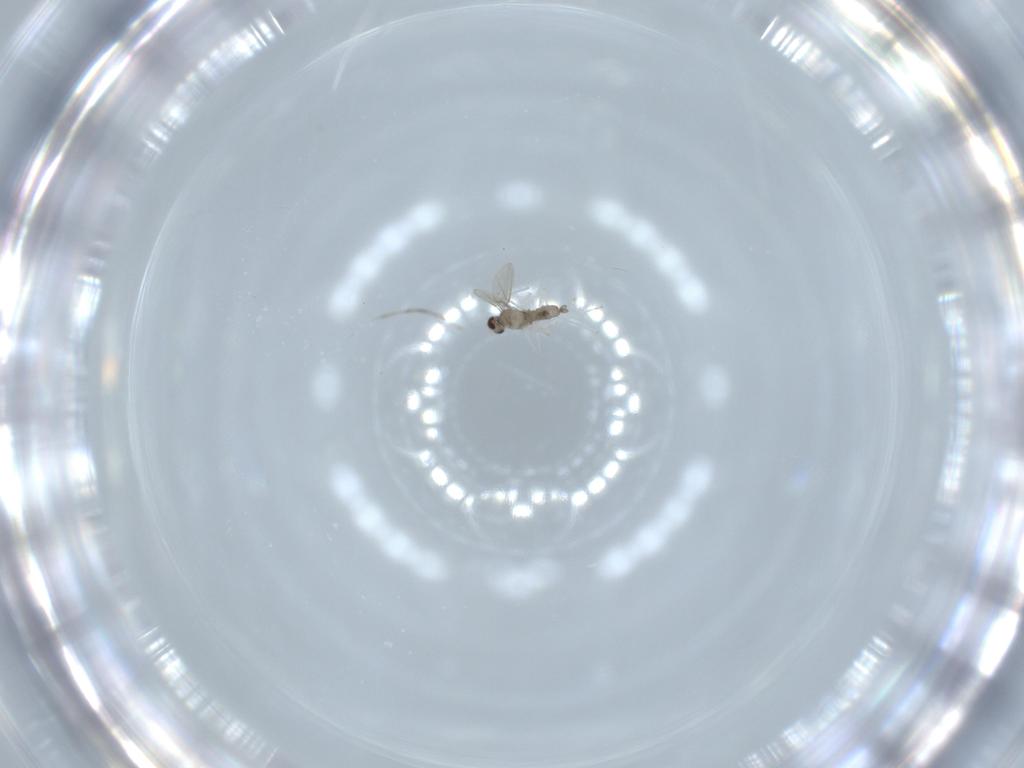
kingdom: Animalia
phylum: Arthropoda
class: Insecta
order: Diptera
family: Cecidomyiidae
